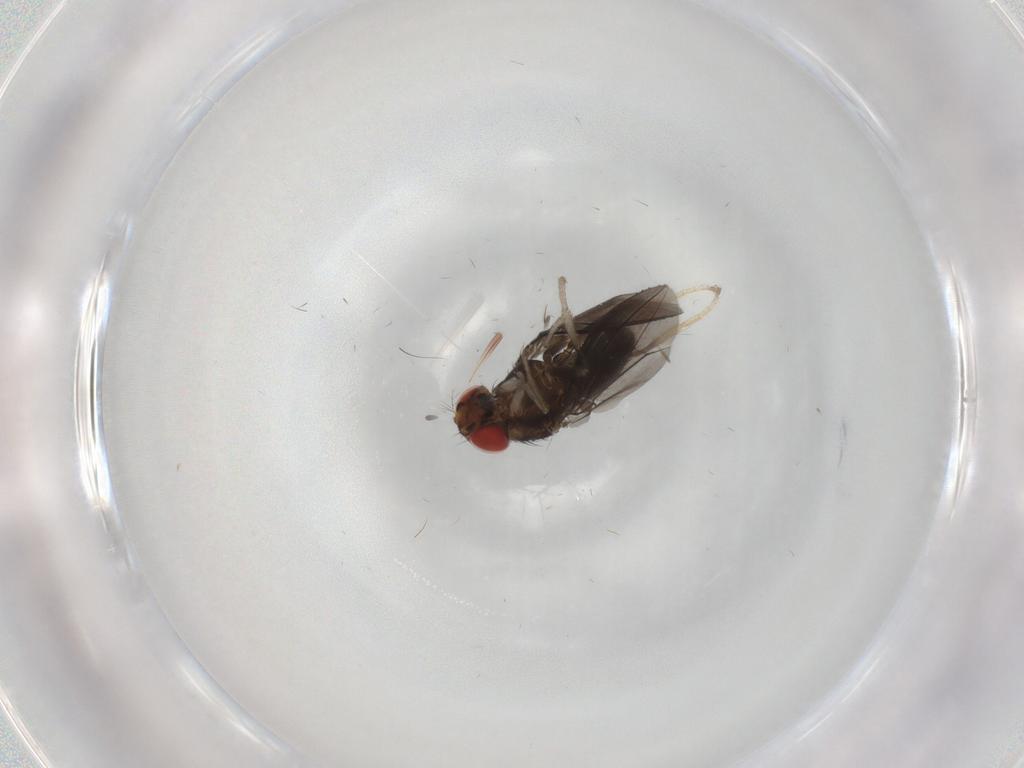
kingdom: Animalia
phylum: Arthropoda
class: Insecta
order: Diptera
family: Drosophilidae
